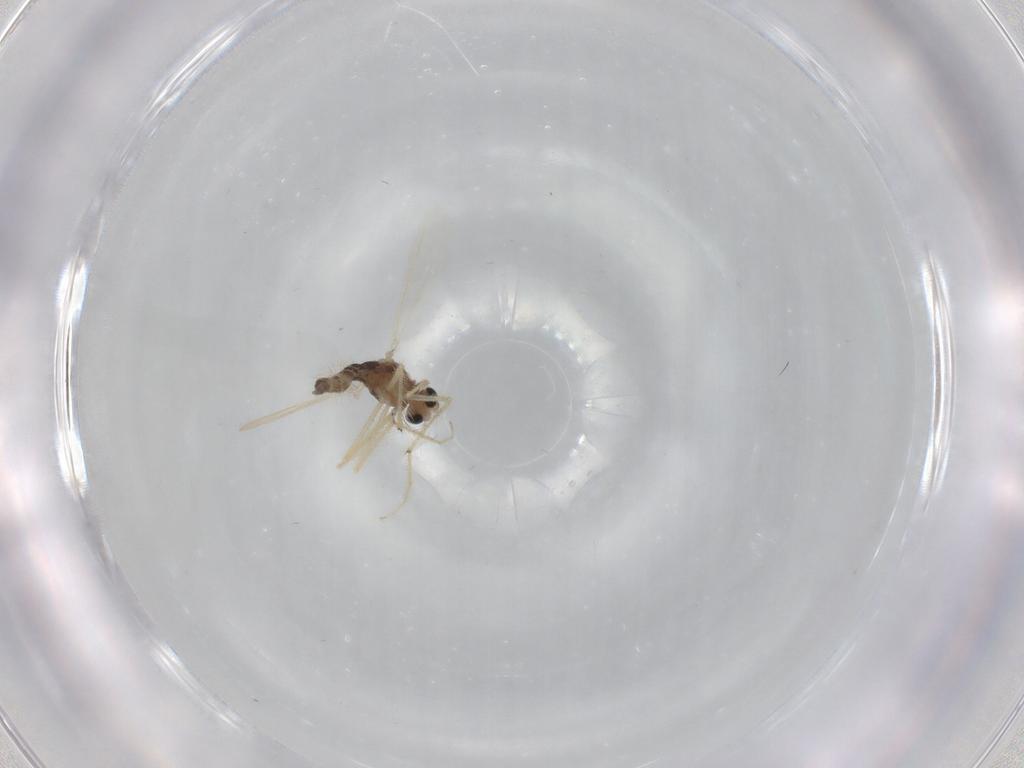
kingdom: Animalia
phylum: Arthropoda
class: Insecta
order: Diptera
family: Chironomidae
